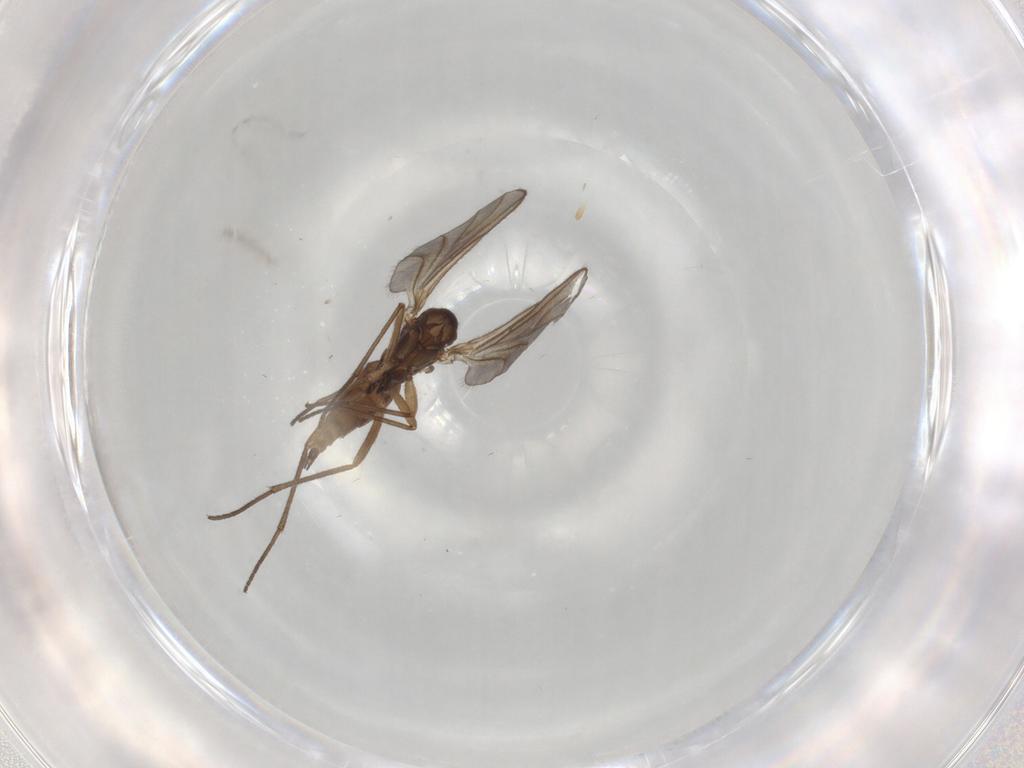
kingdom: Animalia
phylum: Arthropoda
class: Insecta
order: Diptera
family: Sciaridae
